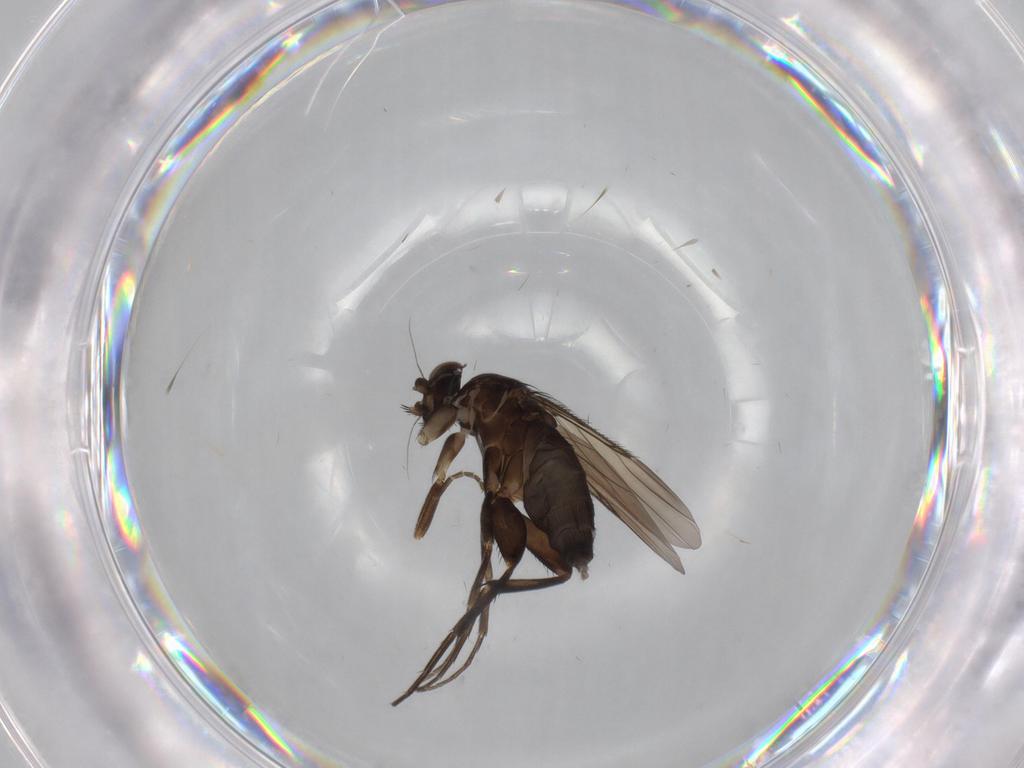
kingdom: Animalia
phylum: Arthropoda
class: Insecta
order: Diptera
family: Phoridae
